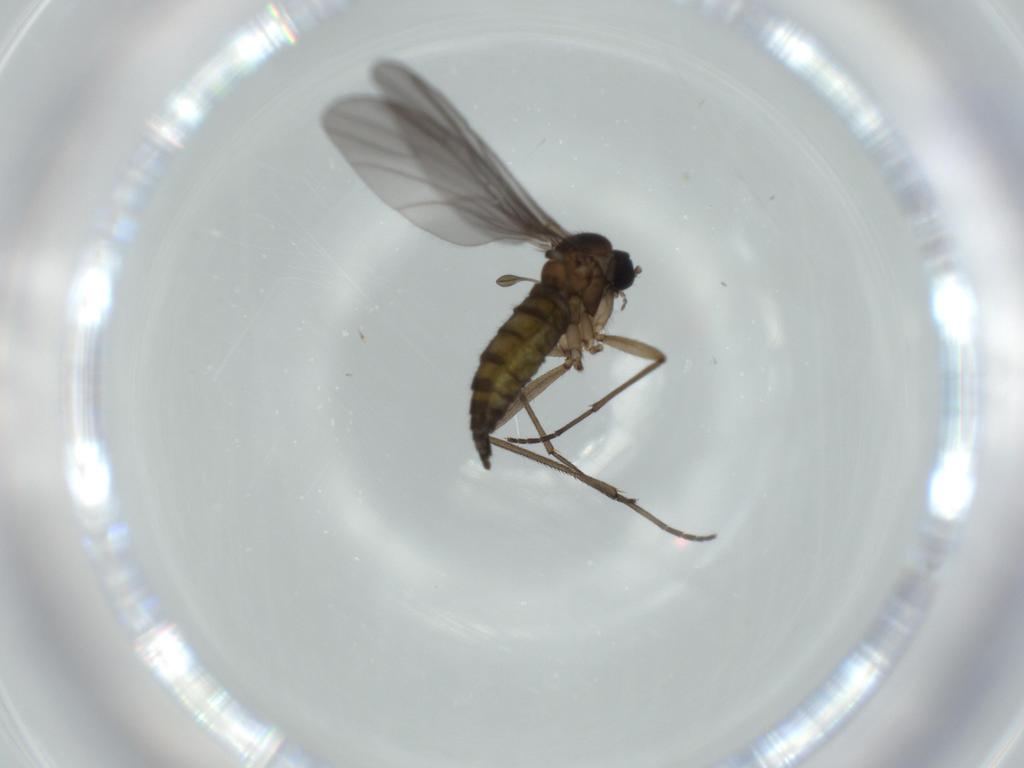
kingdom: Animalia
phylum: Arthropoda
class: Insecta
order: Diptera
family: Sciaridae
